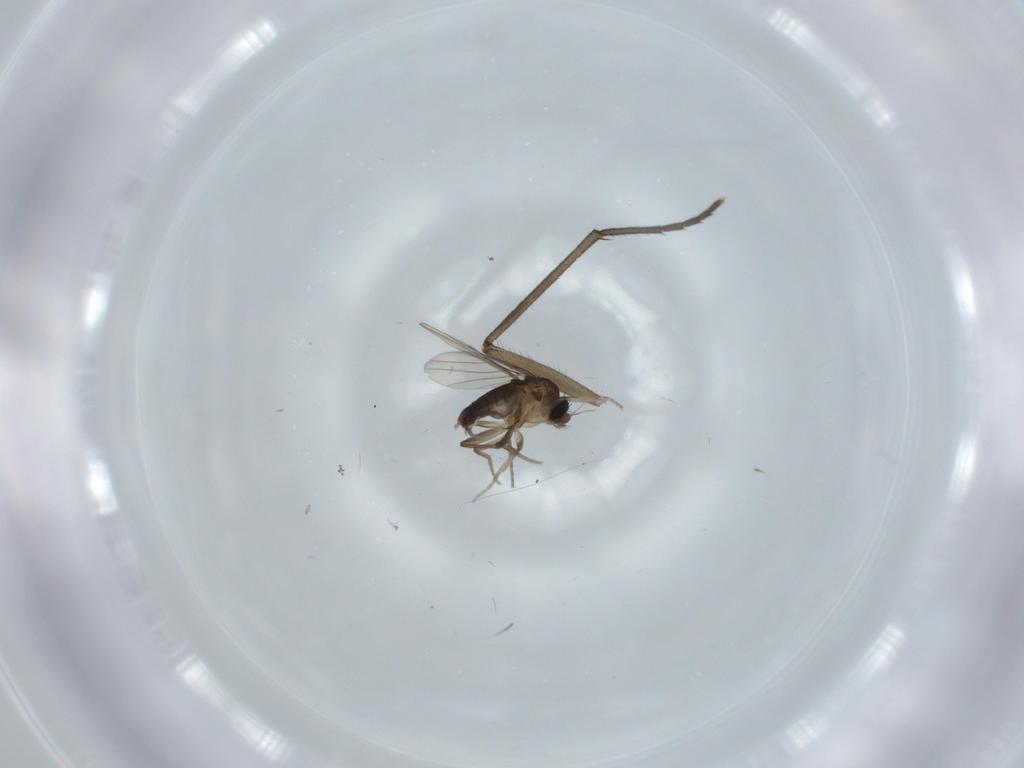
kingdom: Animalia
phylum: Arthropoda
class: Insecta
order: Diptera
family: Phoridae
